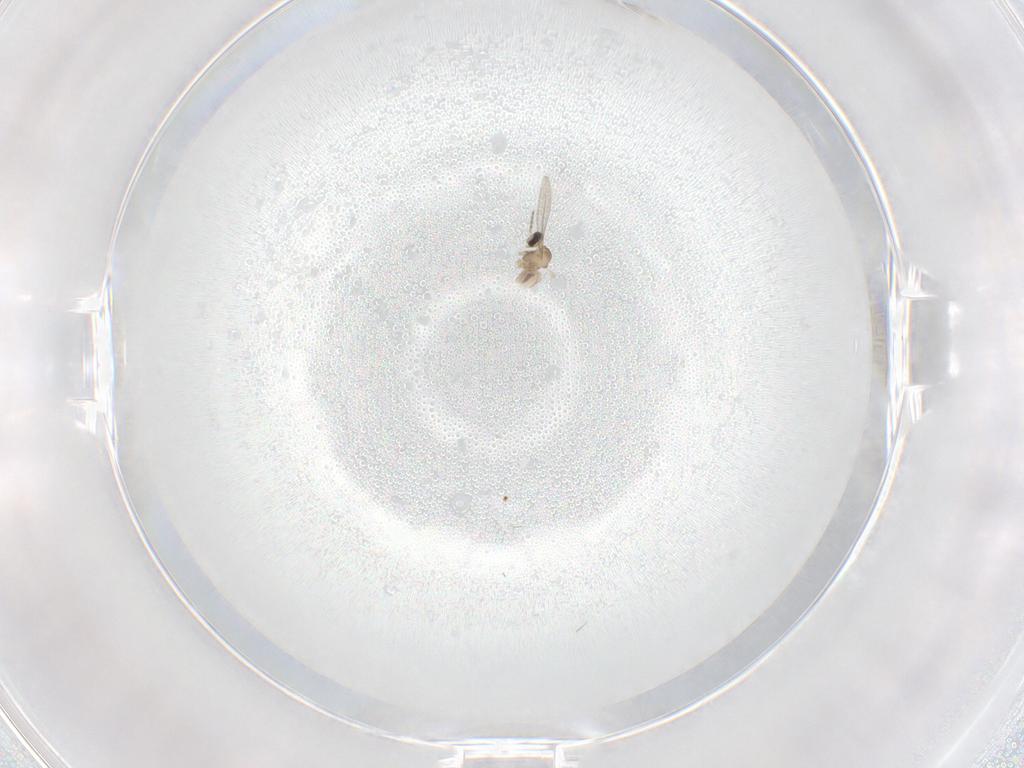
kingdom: Animalia
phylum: Arthropoda
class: Insecta
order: Diptera
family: Cecidomyiidae
